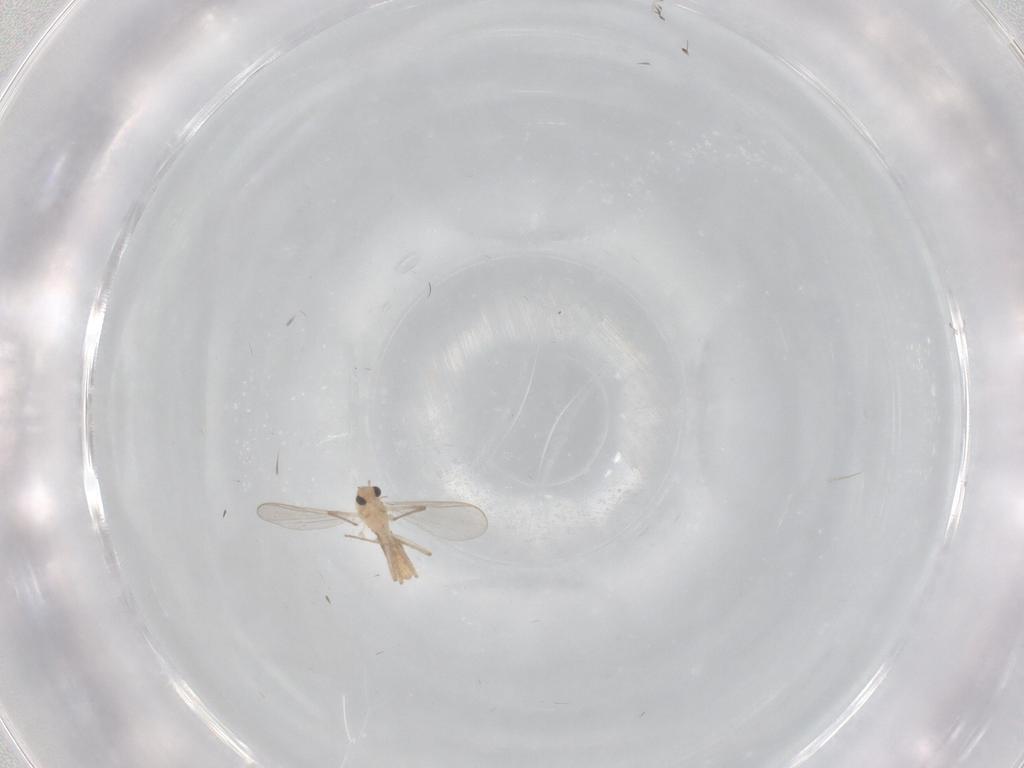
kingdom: Animalia
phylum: Arthropoda
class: Insecta
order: Diptera
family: Cecidomyiidae
